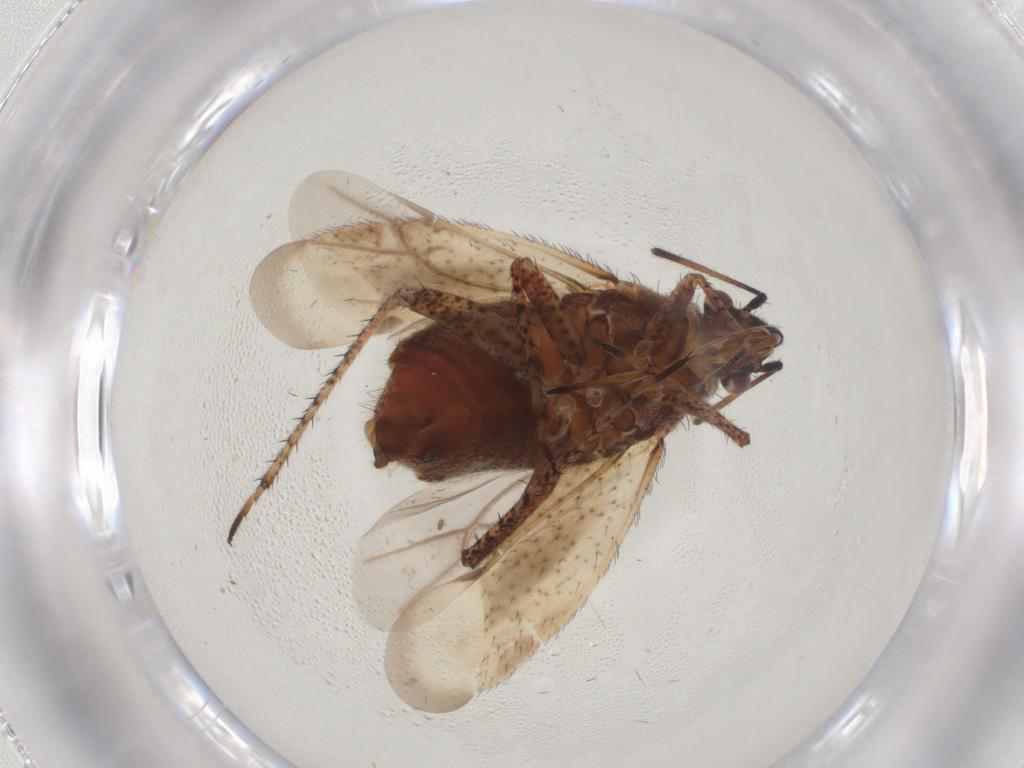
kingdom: Animalia
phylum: Arthropoda
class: Insecta
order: Hemiptera
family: Miridae
